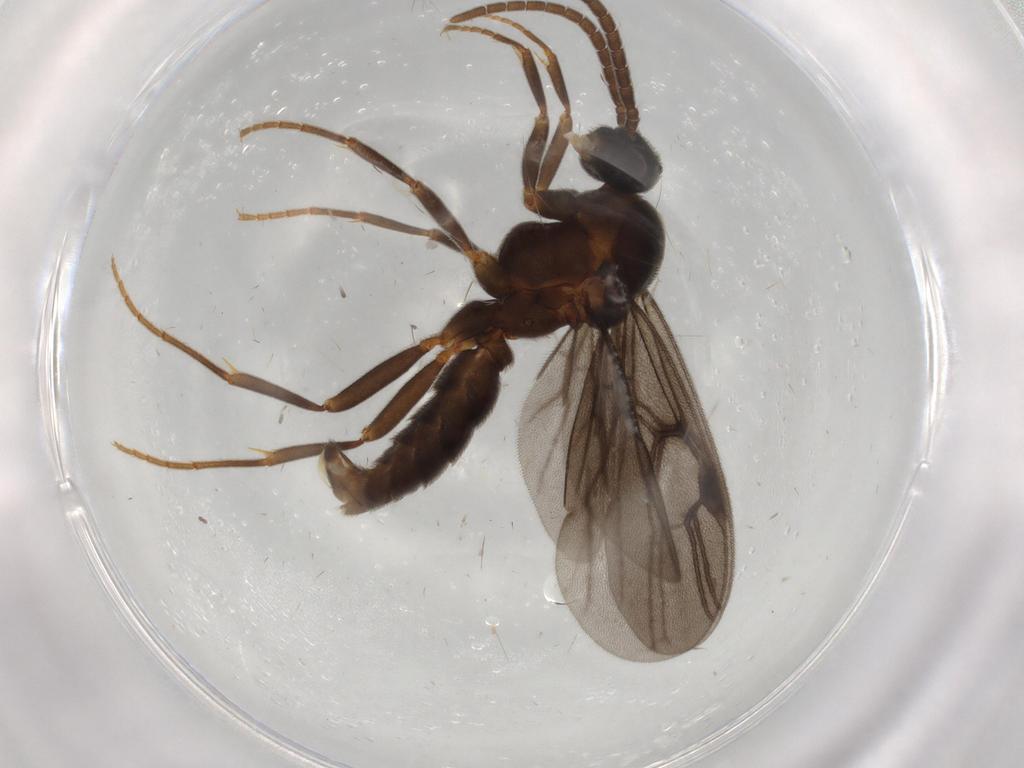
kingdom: Animalia
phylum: Arthropoda
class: Insecta
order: Hymenoptera
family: Formicidae
